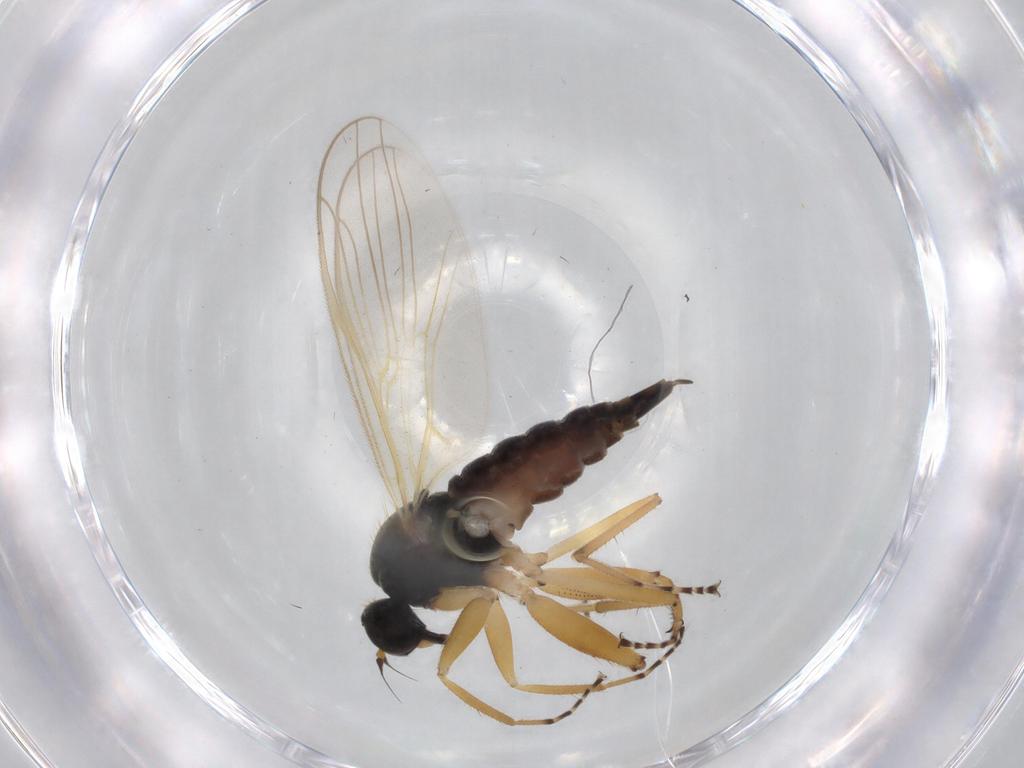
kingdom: Animalia
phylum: Arthropoda
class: Insecta
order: Diptera
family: Dolichopodidae
